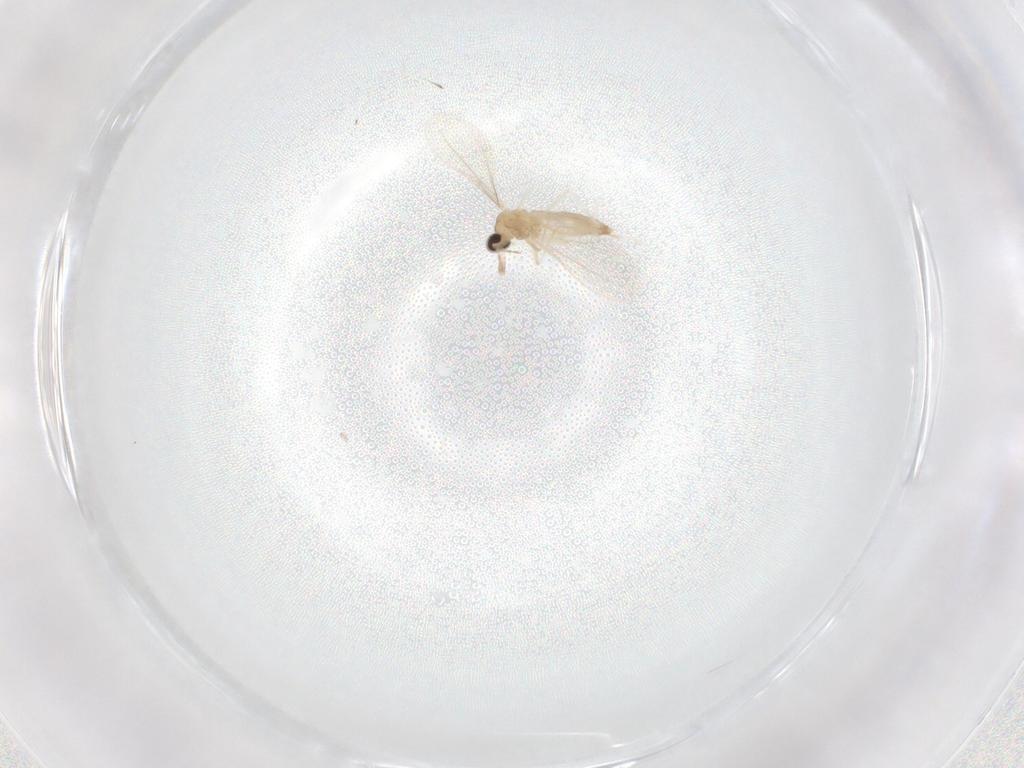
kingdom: Animalia
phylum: Arthropoda
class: Insecta
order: Diptera
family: Cecidomyiidae
